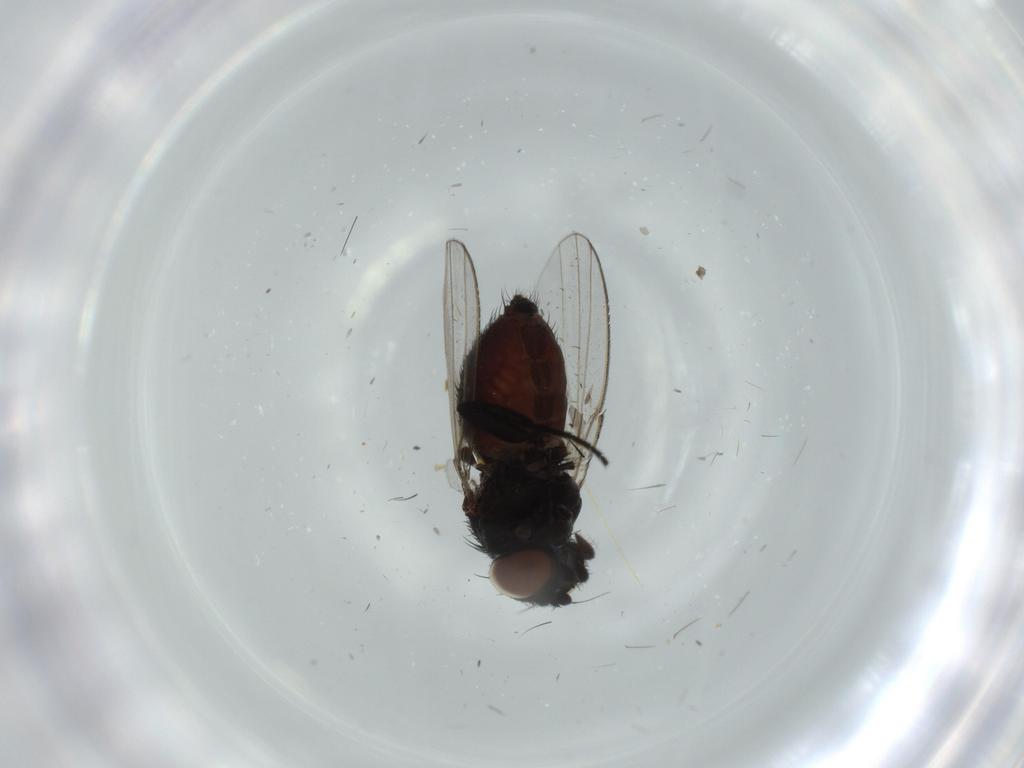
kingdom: Animalia
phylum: Arthropoda
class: Insecta
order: Diptera
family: Milichiidae
